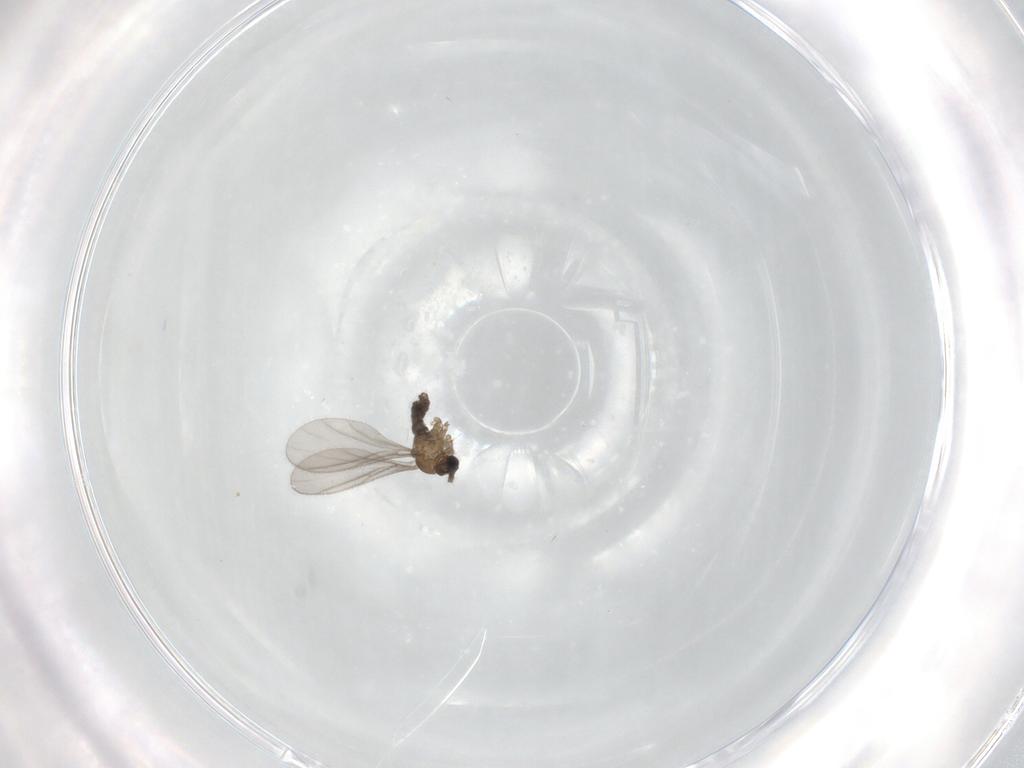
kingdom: Animalia
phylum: Arthropoda
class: Insecta
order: Diptera
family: Sciaridae
